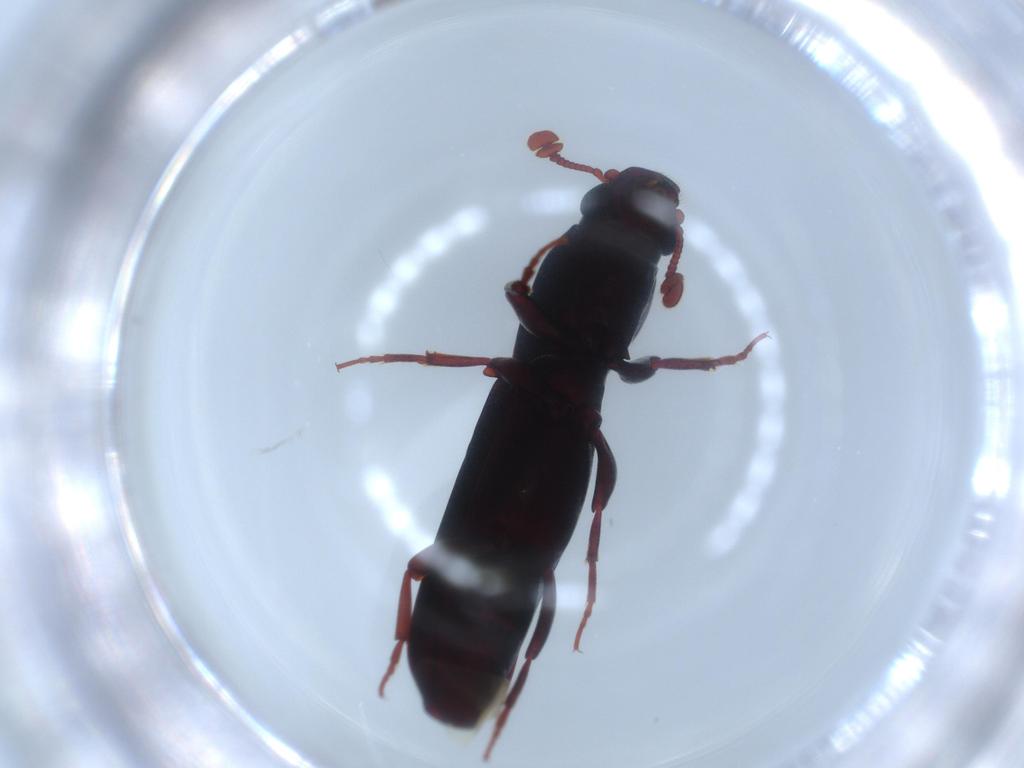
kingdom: Animalia
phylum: Arthropoda
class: Insecta
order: Coleoptera
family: Bothrideridae
